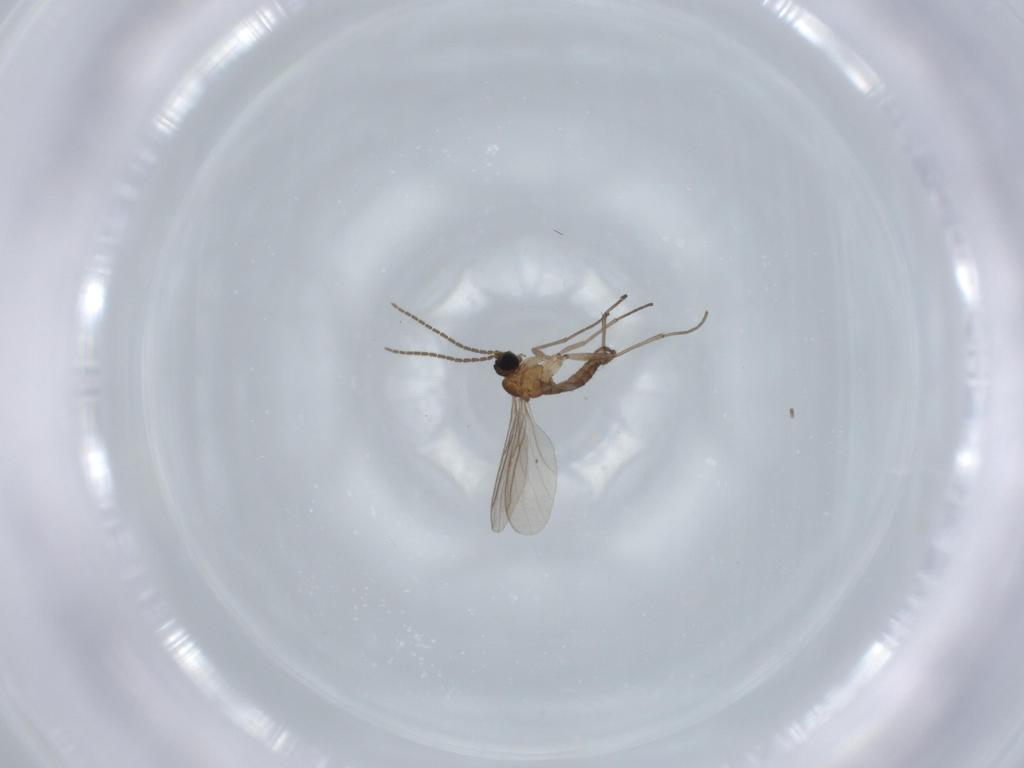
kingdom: Animalia
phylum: Arthropoda
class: Insecta
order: Diptera
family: Sciaridae
